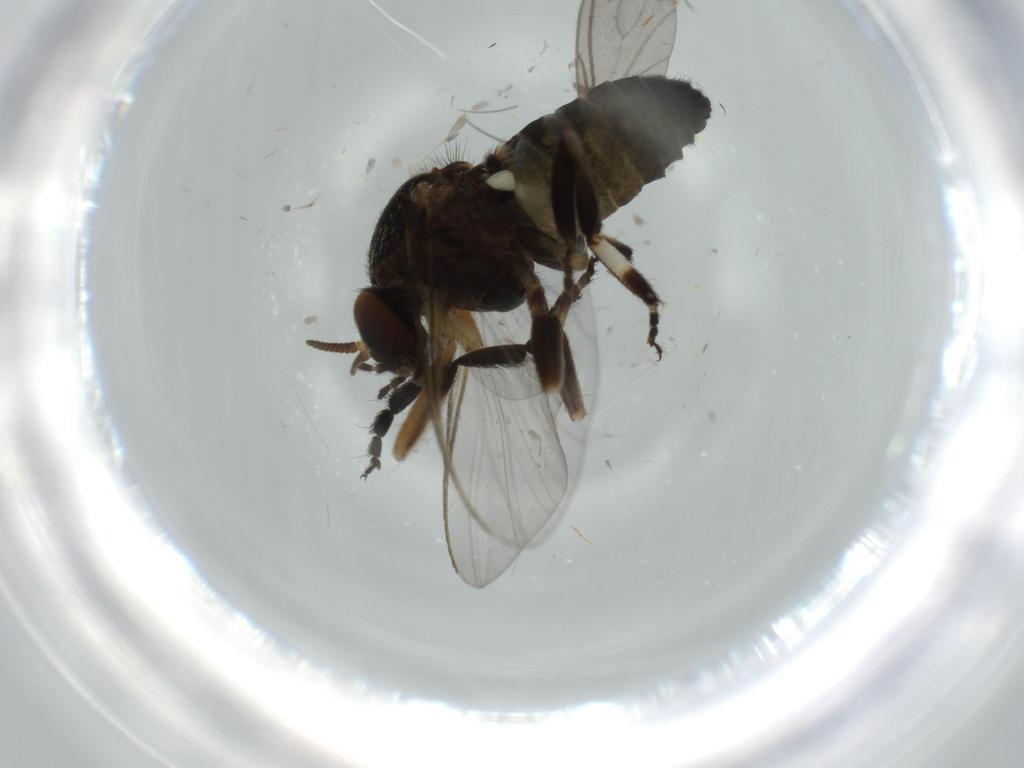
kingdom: Animalia
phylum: Arthropoda
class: Insecta
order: Diptera
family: Phoridae
